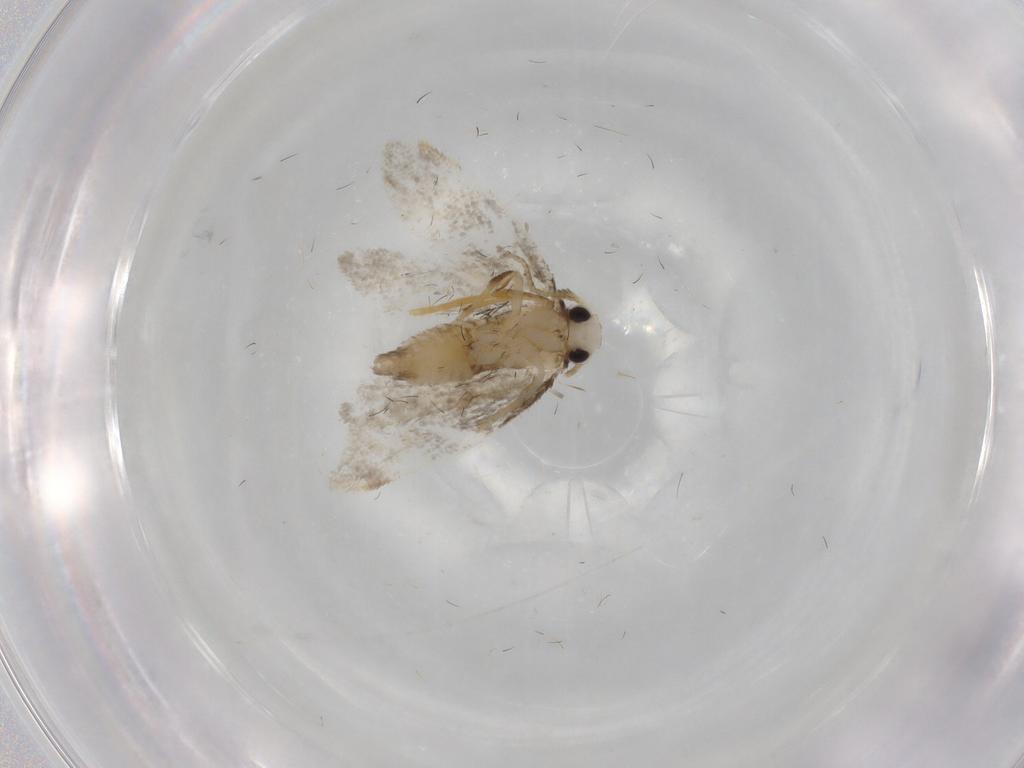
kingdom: Animalia
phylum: Arthropoda
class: Insecta
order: Lepidoptera
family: Psychidae
